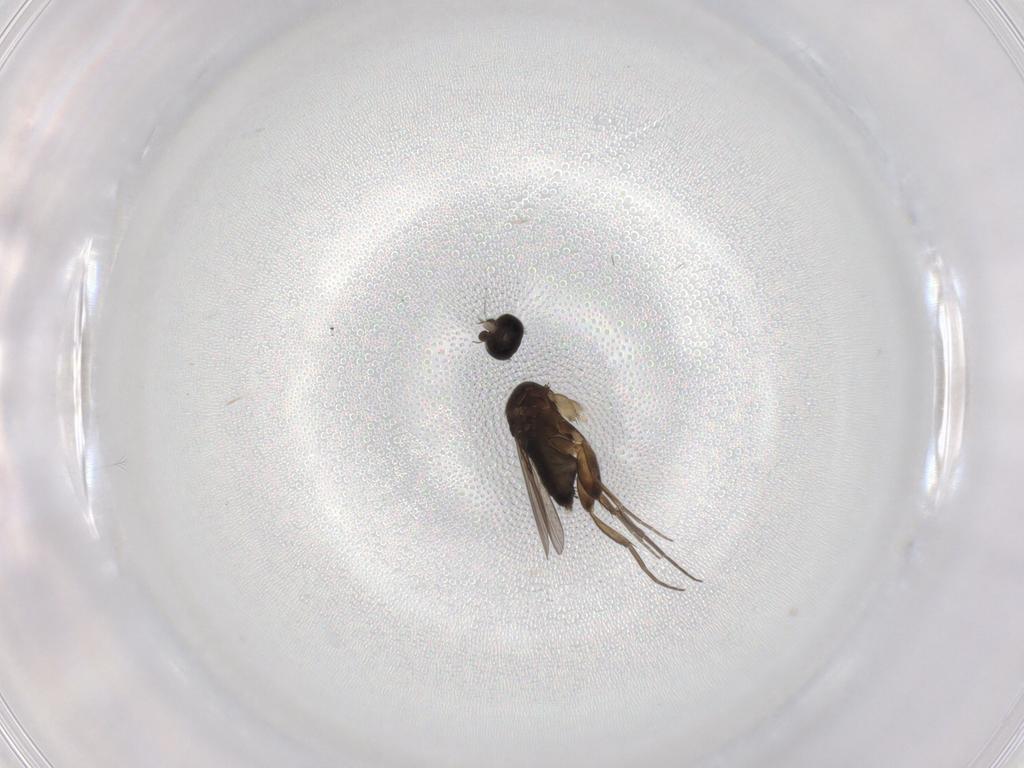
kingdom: Animalia
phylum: Arthropoda
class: Insecta
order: Diptera
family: Phoridae
